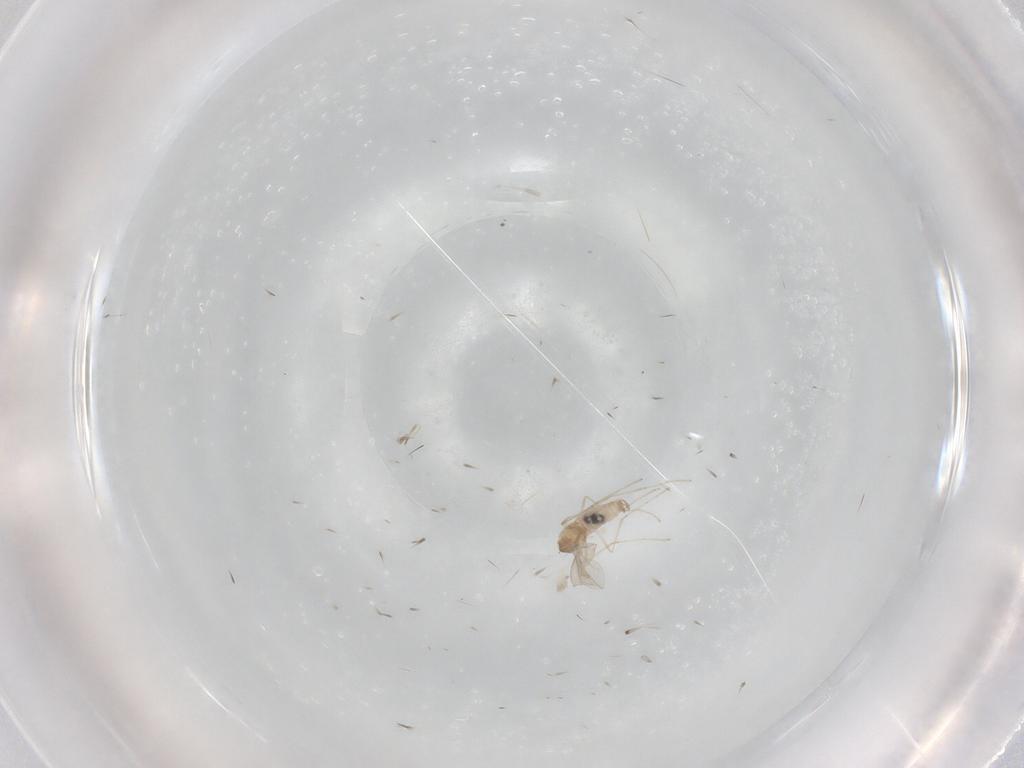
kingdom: Animalia
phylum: Arthropoda
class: Insecta
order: Diptera
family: Cecidomyiidae
